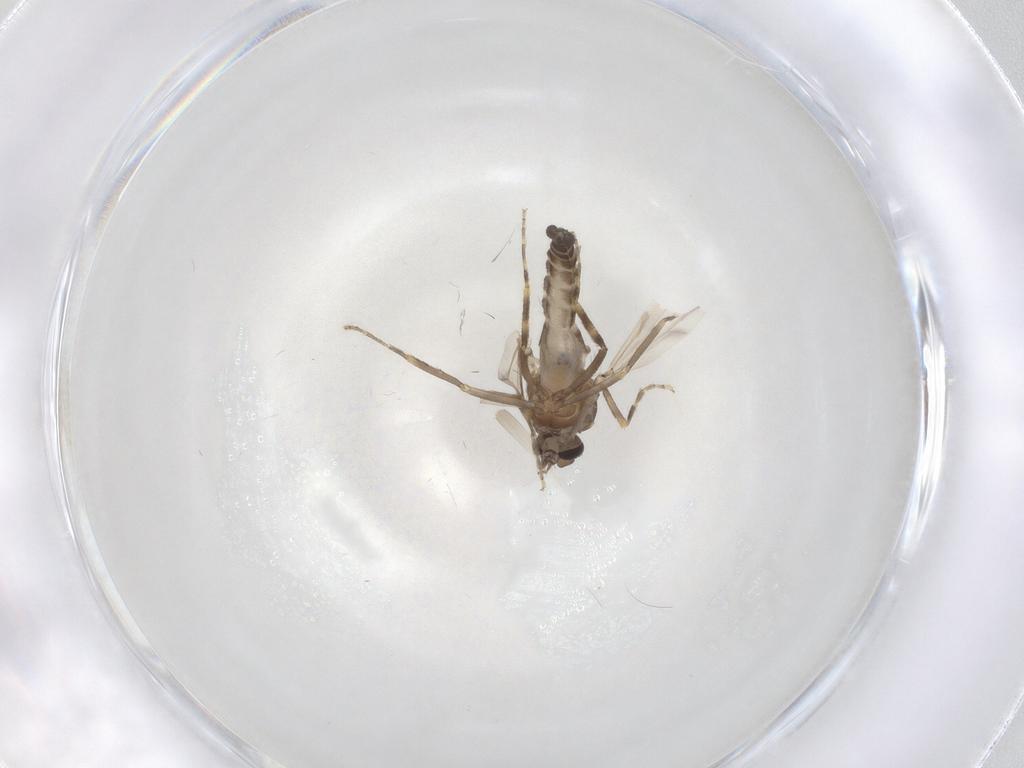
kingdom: Animalia
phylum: Arthropoda
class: Insecta
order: Diptera
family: Ceratopogonidae
